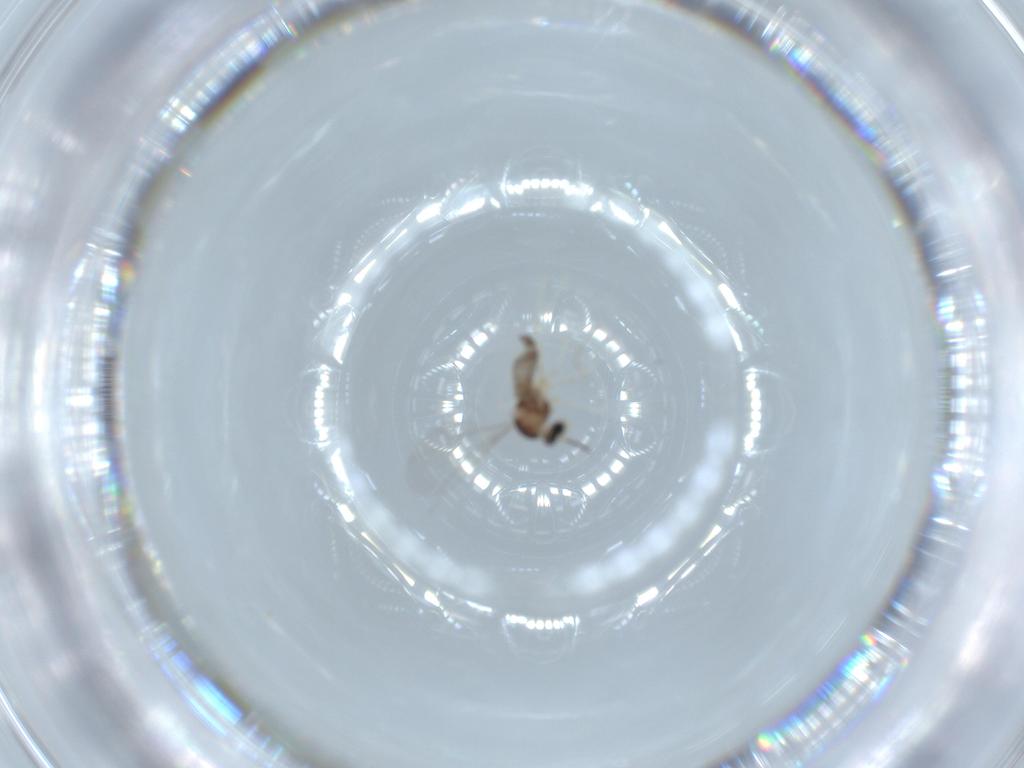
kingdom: Animalia
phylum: Arthropoda
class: Insecta
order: Diptera
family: Cecidomyiidae
